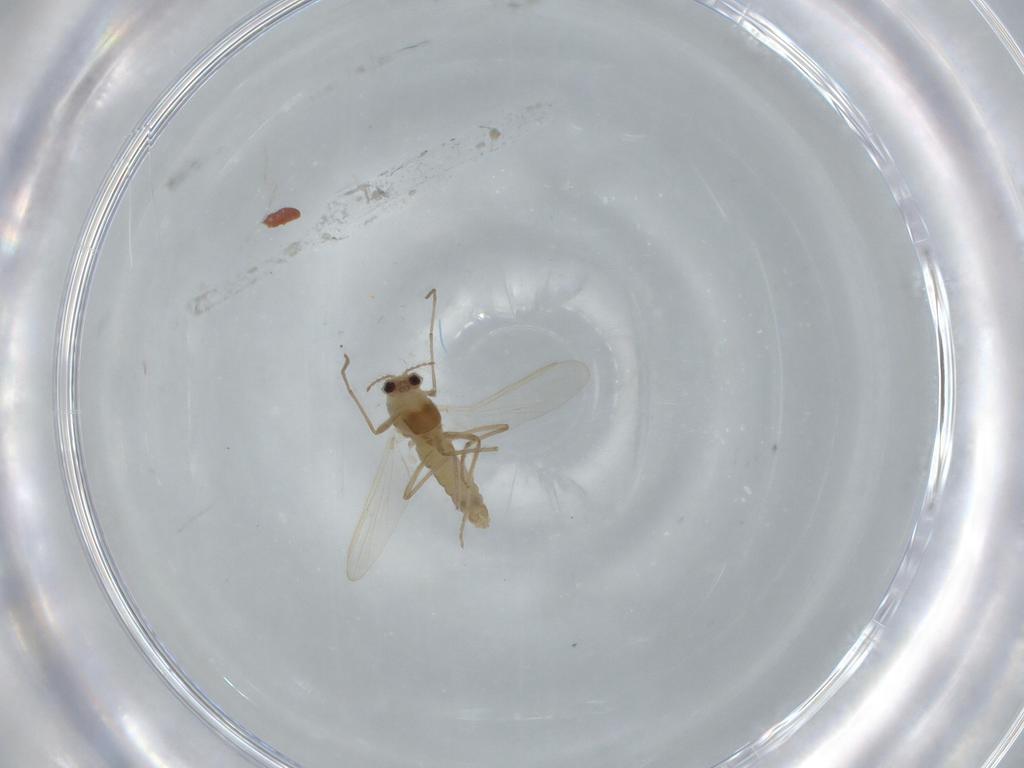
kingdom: Animalia
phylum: Arthropoda
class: Insecta
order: Diptera
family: Chironomidae
